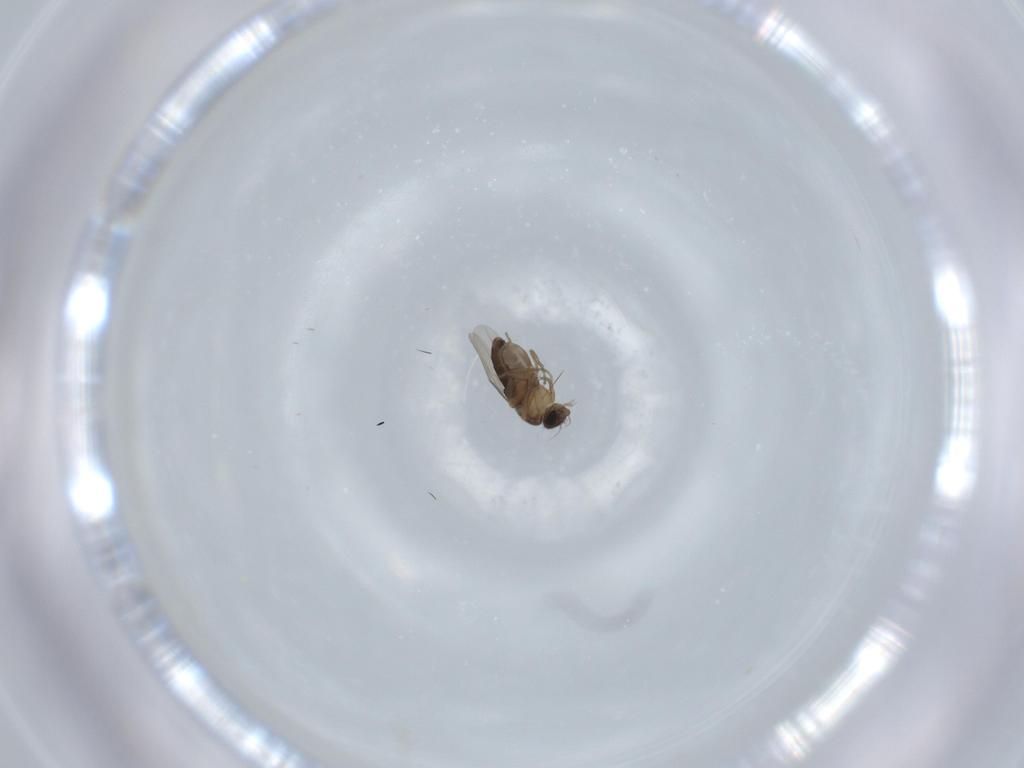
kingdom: Animalia
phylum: Arthropoda
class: Insecta
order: Diptera
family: Phoridae
